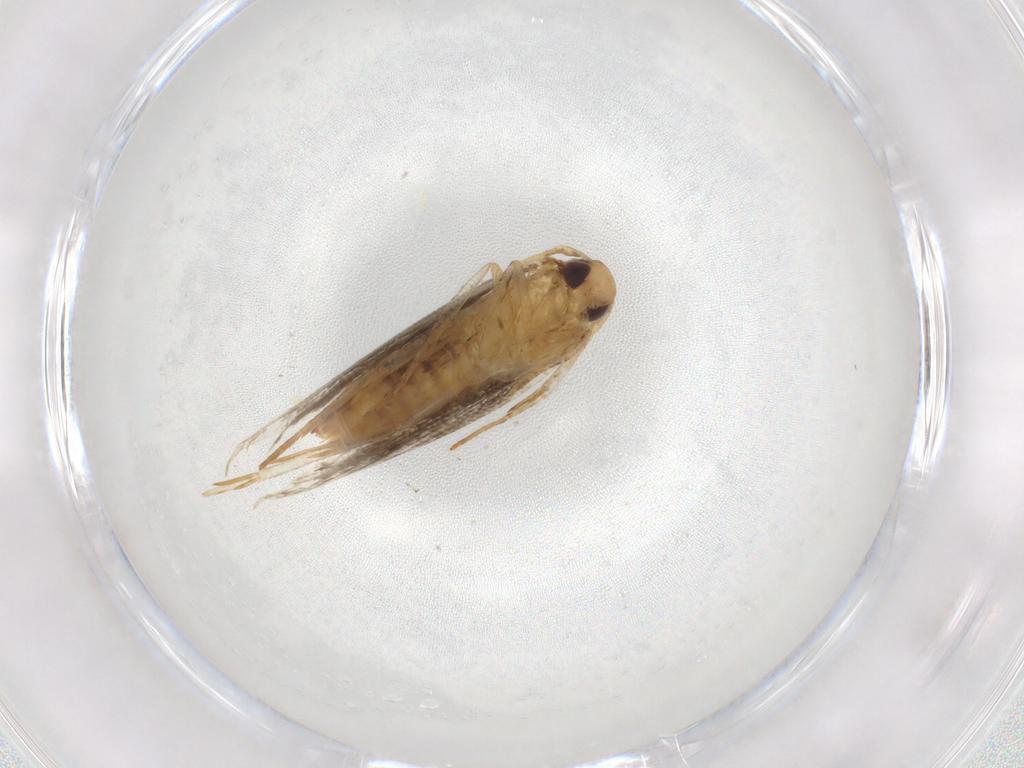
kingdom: Animalia
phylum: Arthropoda
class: Insecta
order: Lepidoptera
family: Cosmopterigidae
